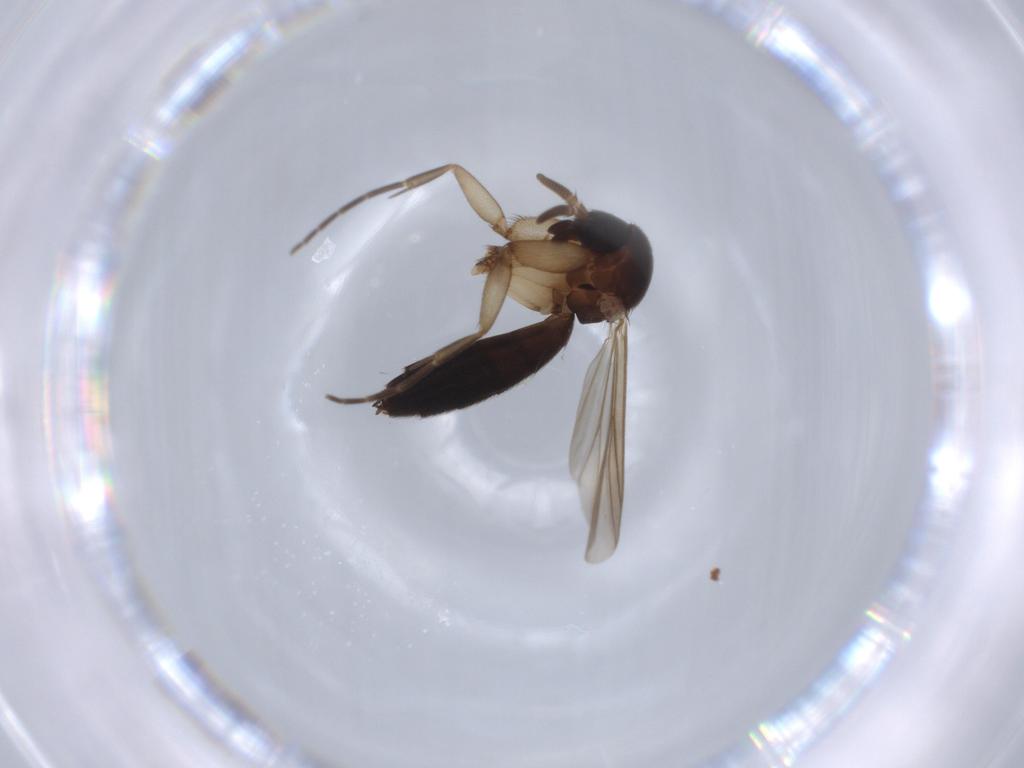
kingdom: Animalia
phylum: Arthropoda
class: Insecta
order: Diptera
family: Mycetophilidae
